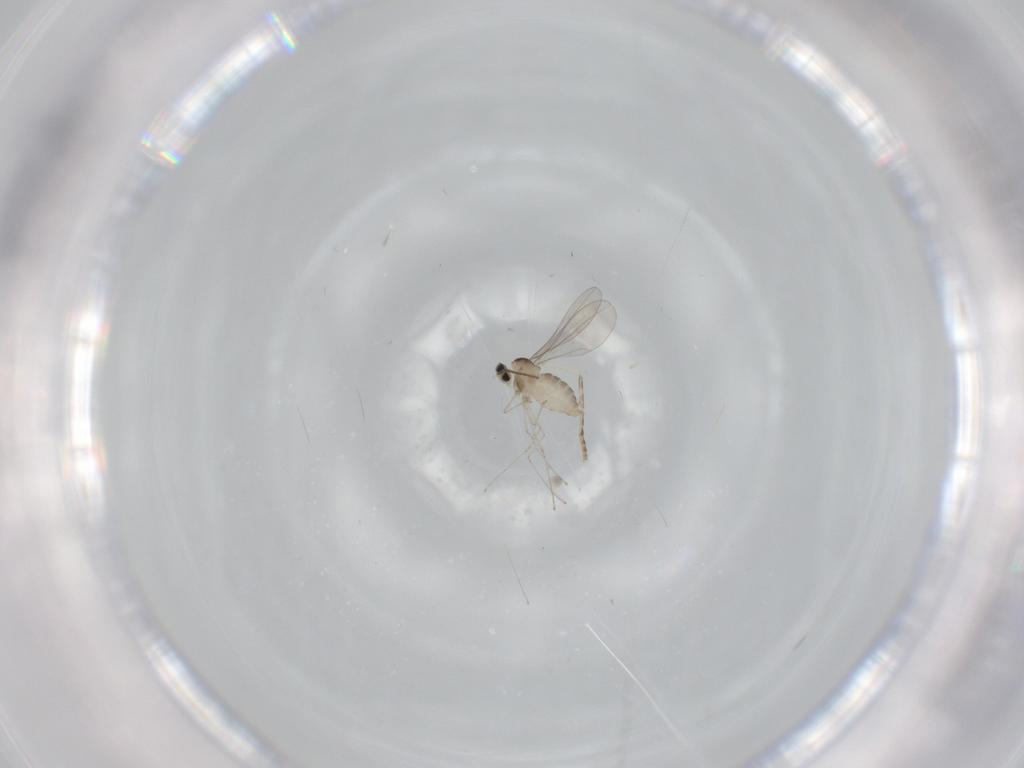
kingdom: Animalia
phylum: Arthropoda
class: Insecta
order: Diptera
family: Dolichopodidae
